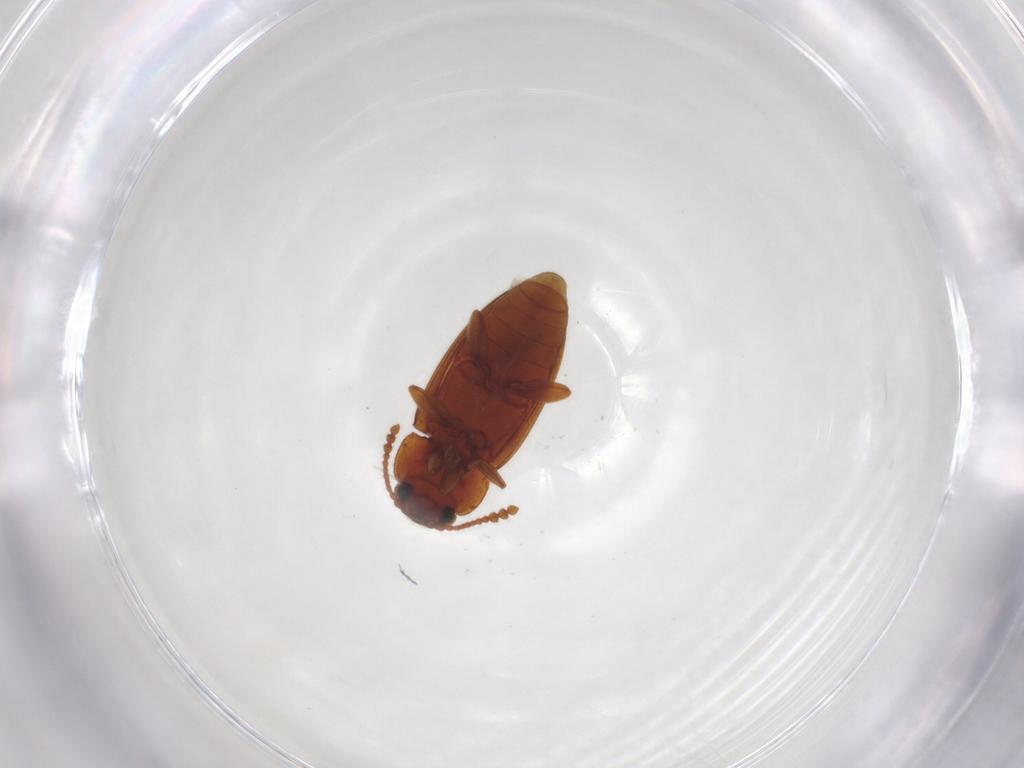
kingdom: Animalia
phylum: Arthropoda
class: Insecta
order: Coleoptera
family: Erotylidae
